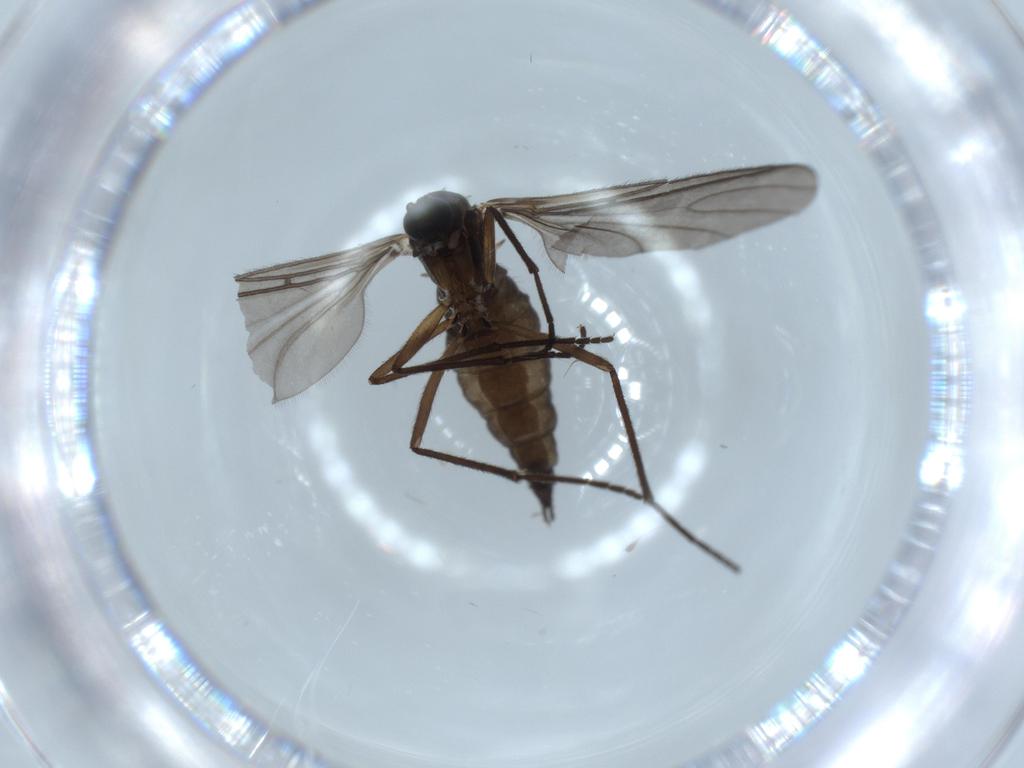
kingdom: Animalia
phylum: Arthropoda
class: Insecta
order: Diptera
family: Sciaridae
